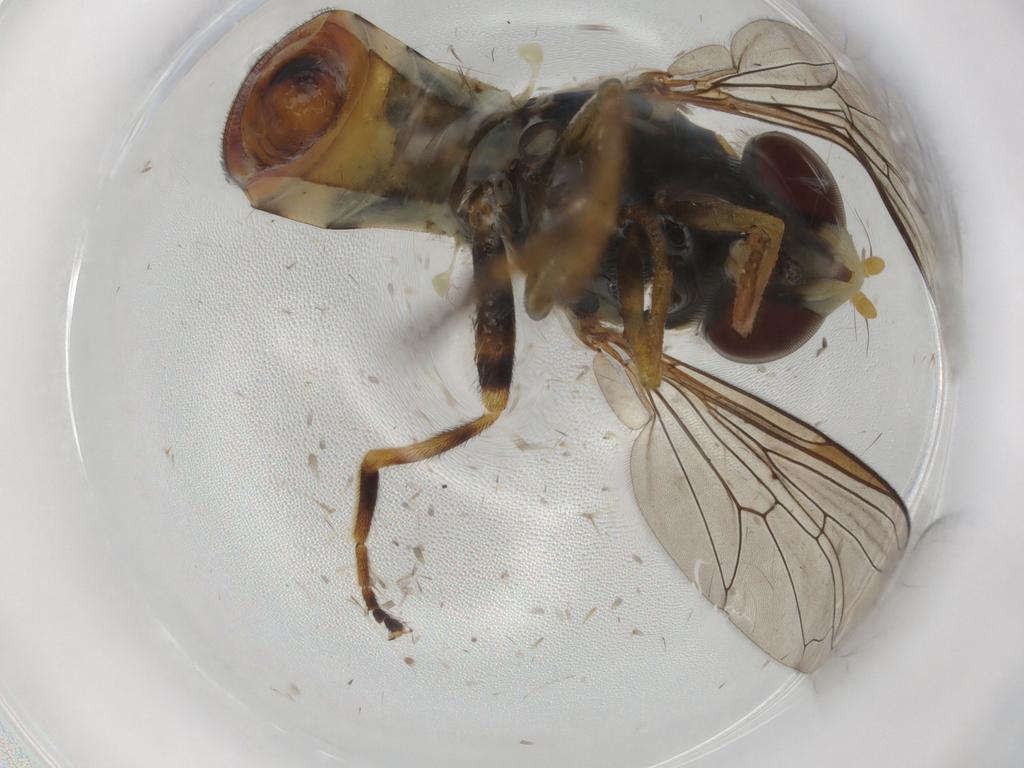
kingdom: Animalia
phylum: Arthropoda
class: Insecta
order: Diptera
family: Syrphidae
